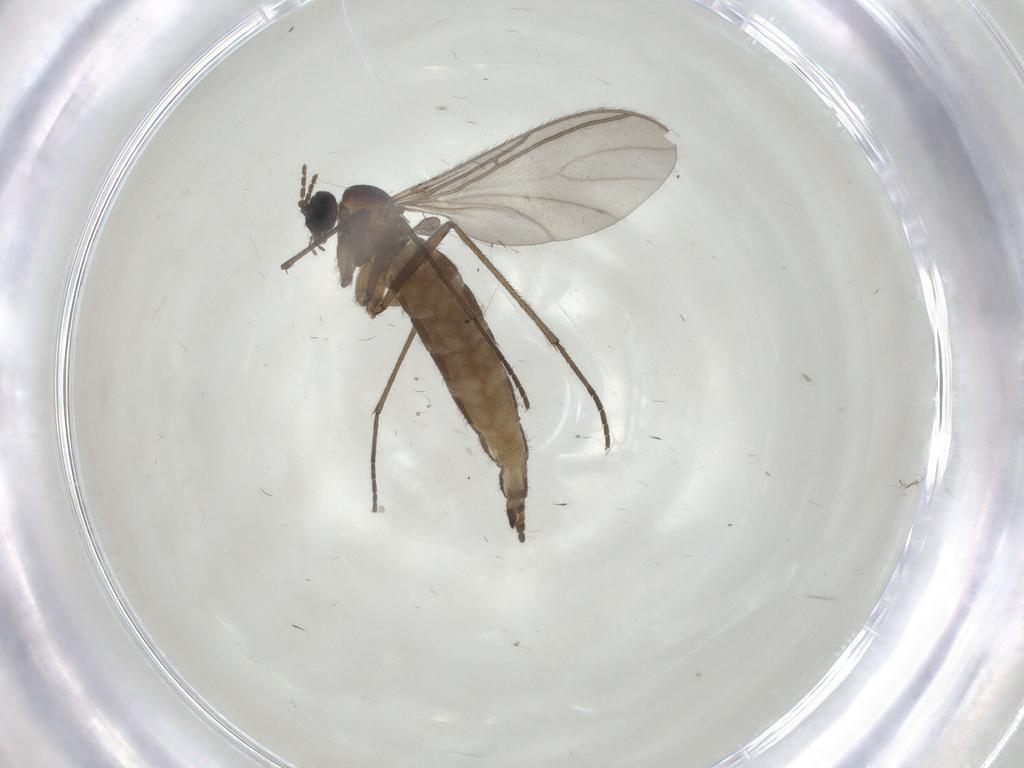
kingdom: Animalia
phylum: Arthropoda
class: Insecta
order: Diptera
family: Sciaridae
